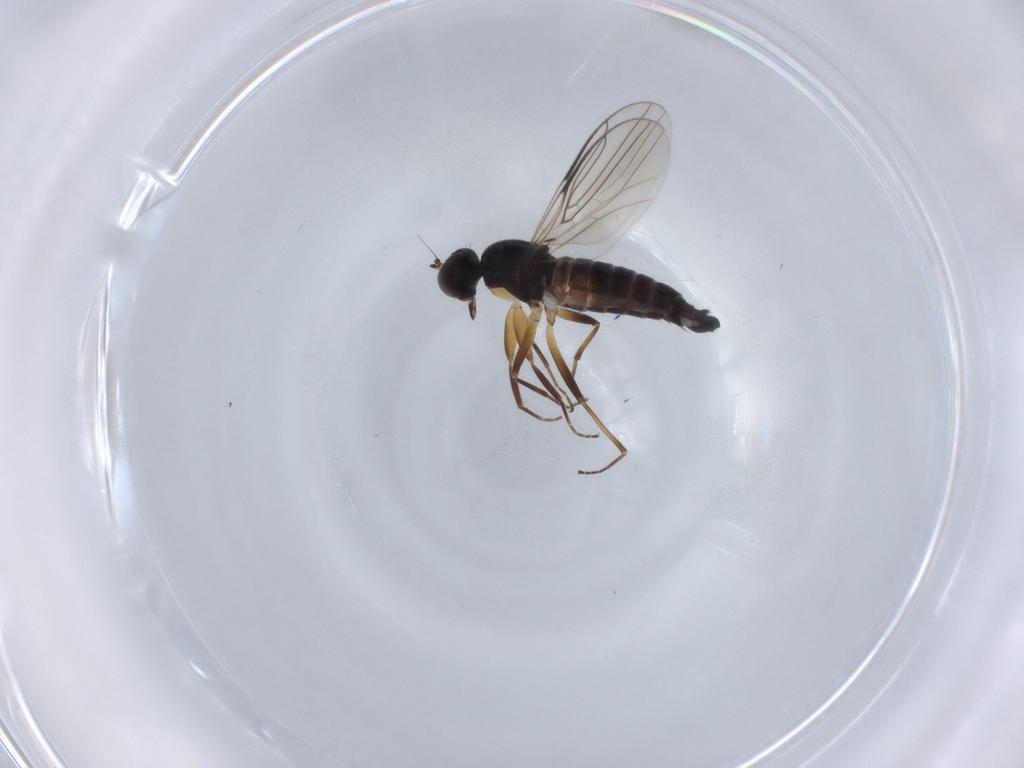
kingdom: Animalia
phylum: Arthropoda
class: Insecta
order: Diptera
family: Hybotidae
